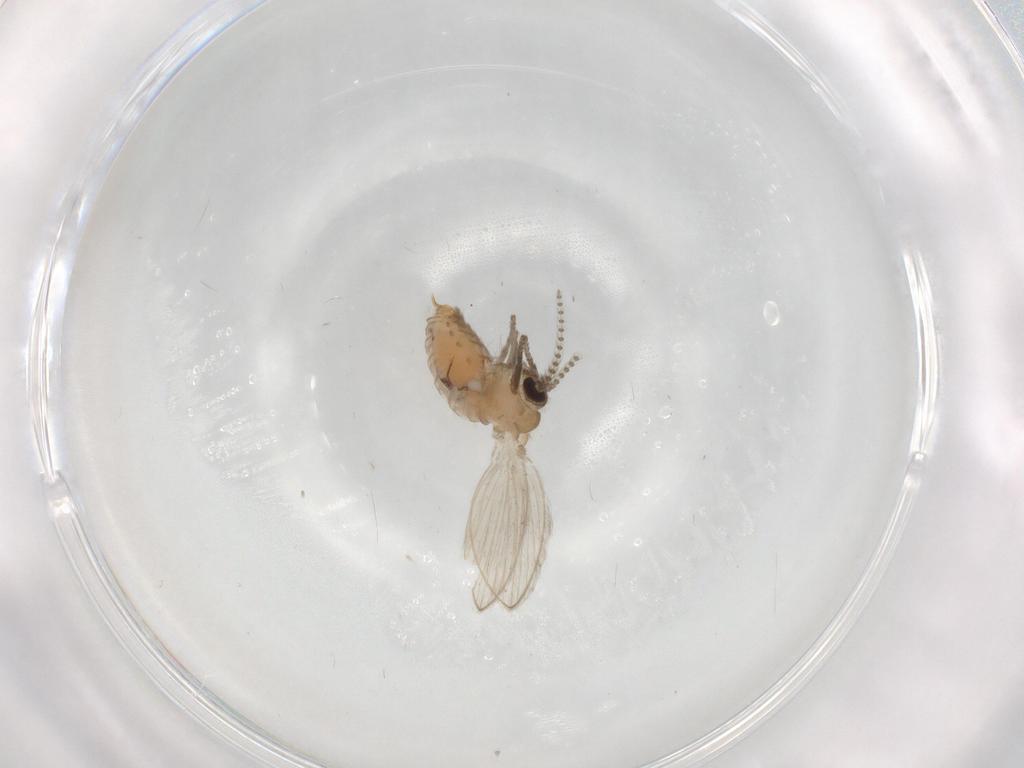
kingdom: Animalia
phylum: Arthropoda
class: Insecta
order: Diptera
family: Psychodidae
